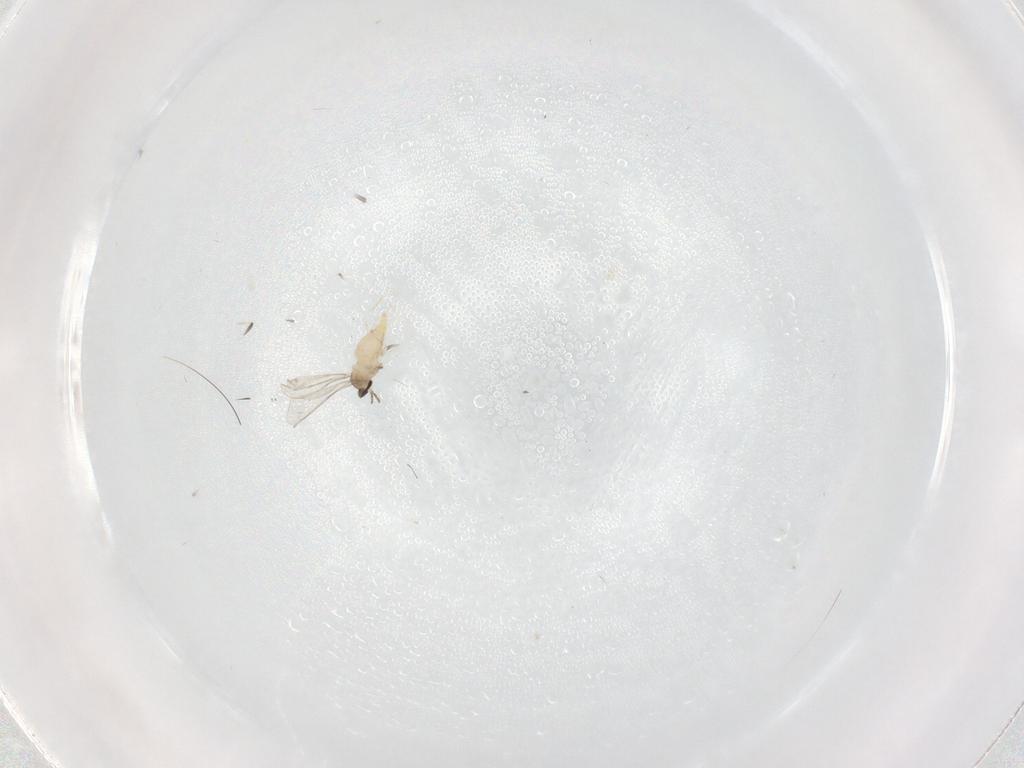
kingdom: Animalia
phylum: Arthropoda
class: Insecta
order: Diptera
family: Cecidomyiidae
